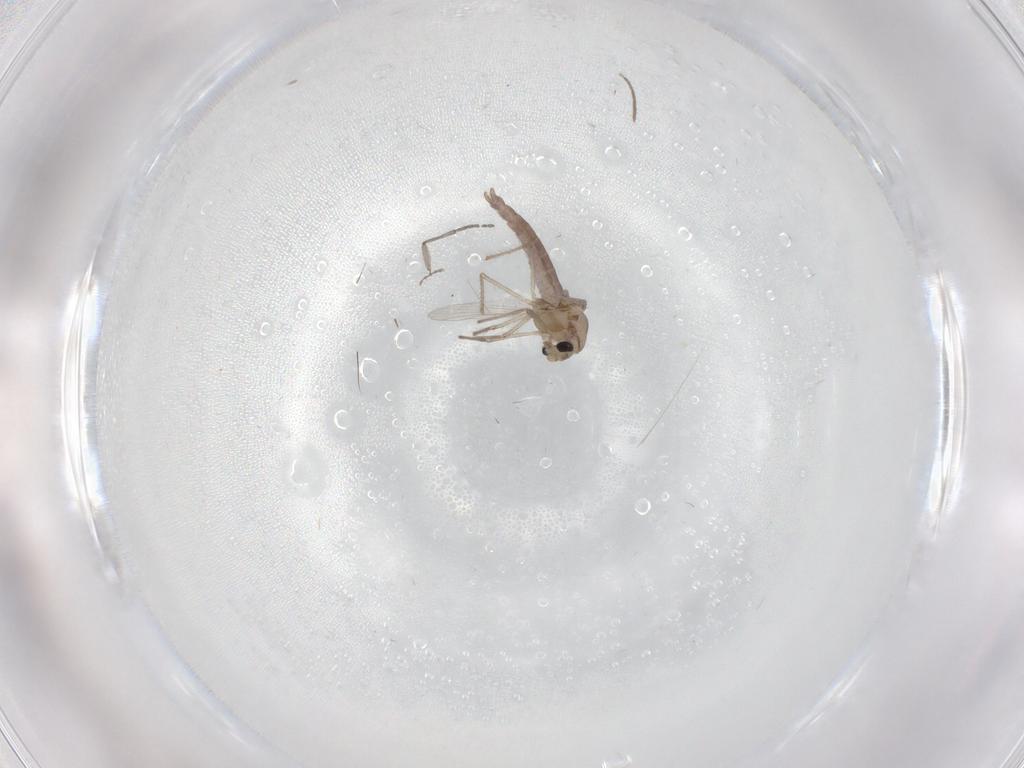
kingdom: Animalia
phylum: Arthropoda
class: Insecta
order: Diptera
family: Chironomidae
